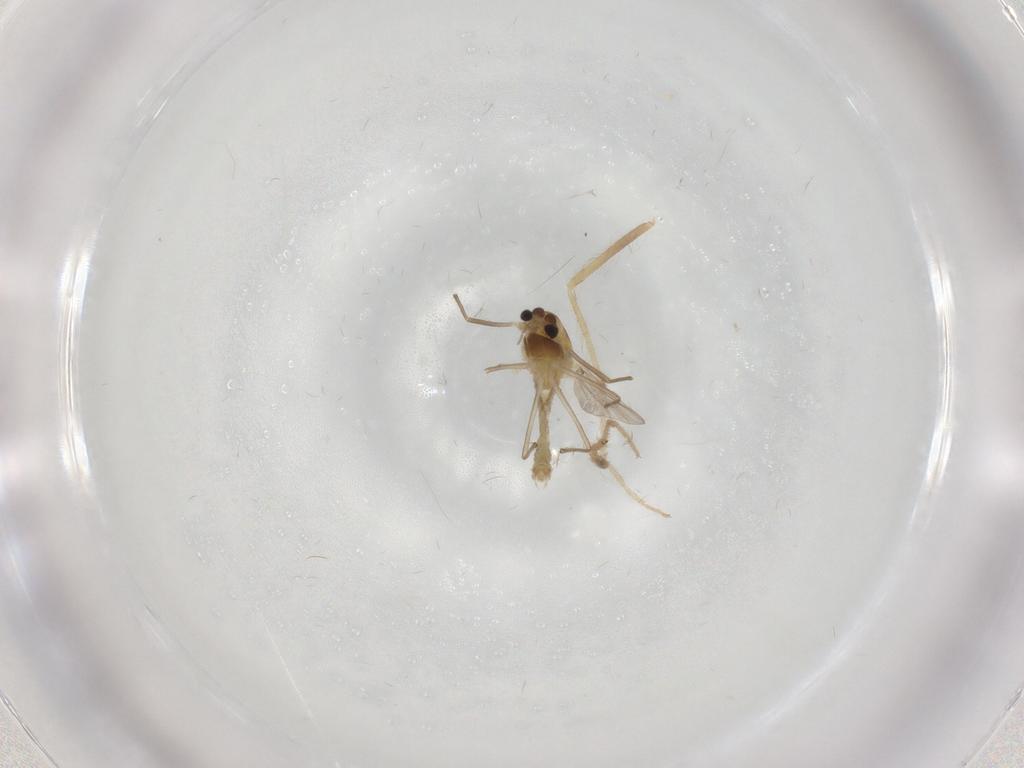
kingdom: Animalia
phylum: Arthropoda
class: Insecta
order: Diptera
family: Chironomidae
